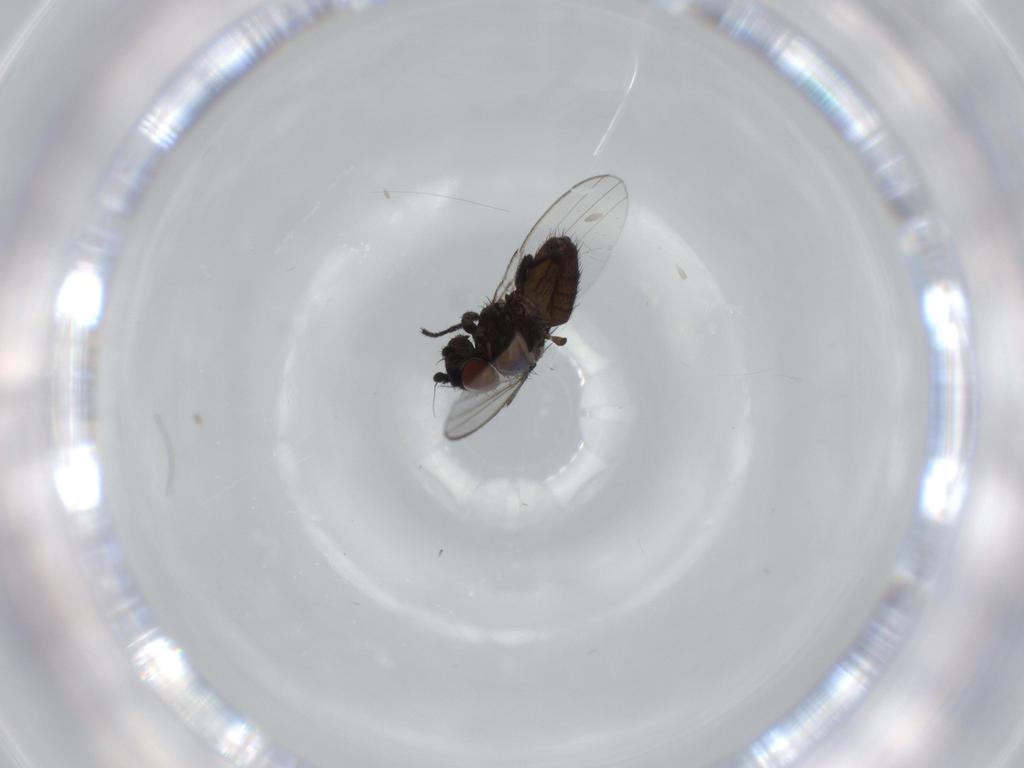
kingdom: Animalia
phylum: Arthropoda
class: Insecta
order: Diptera
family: Milichiidae
